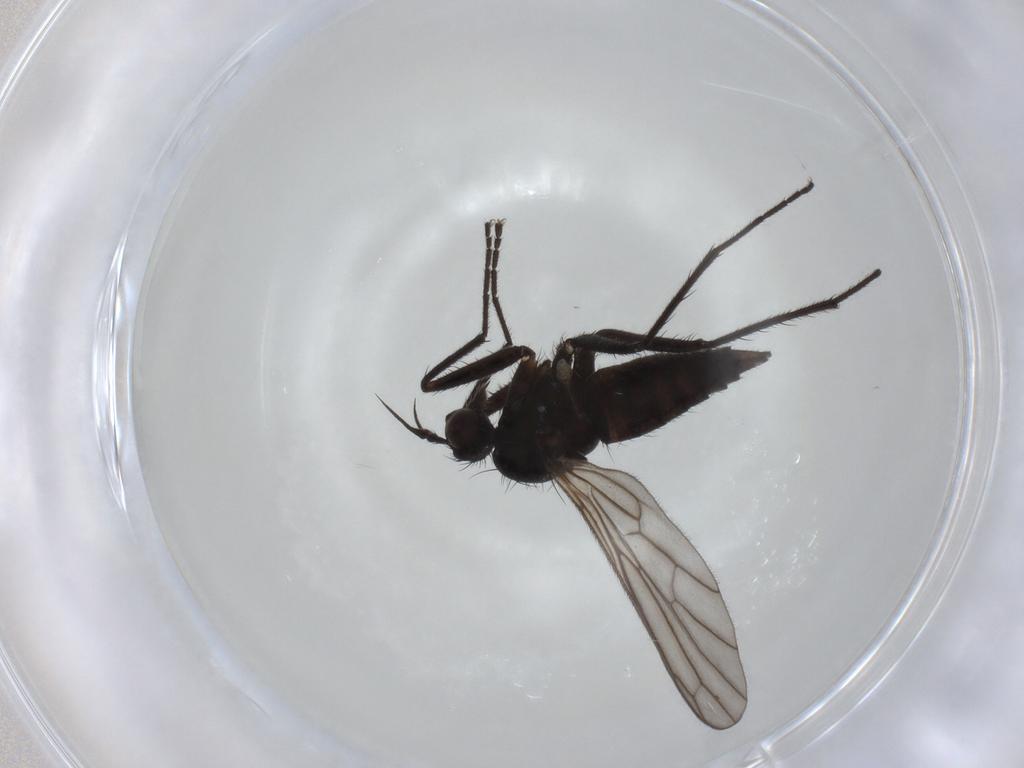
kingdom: Animalia
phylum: Arthropoda
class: Insecta
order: Diptera
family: Empididae
